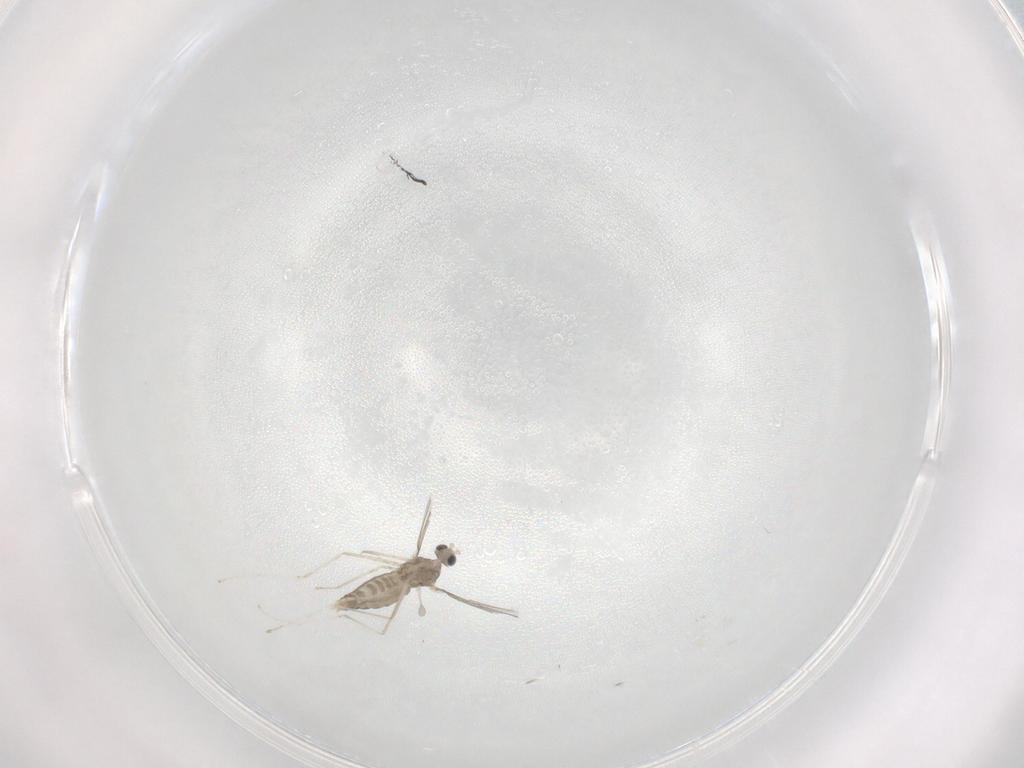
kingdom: Animalia
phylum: Arthropoda
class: Insecta
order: Diptera
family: Cecidomyiidae
